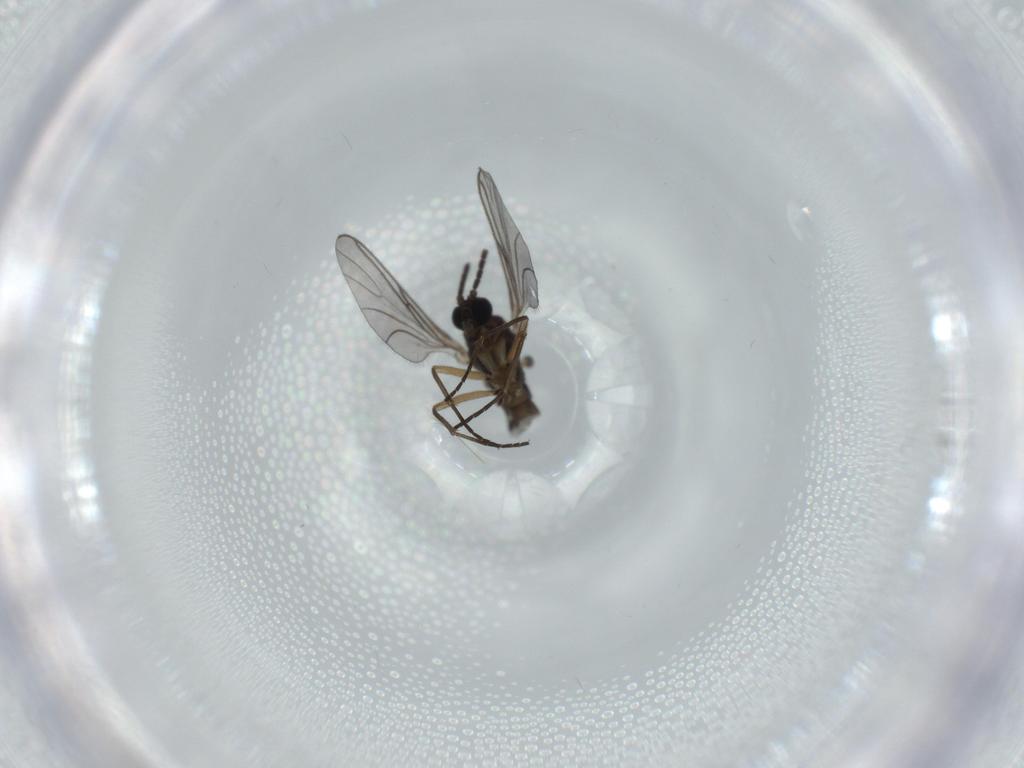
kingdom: Animalia
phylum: Arthropoda
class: Insecta
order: Diptera
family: Sciaridae
